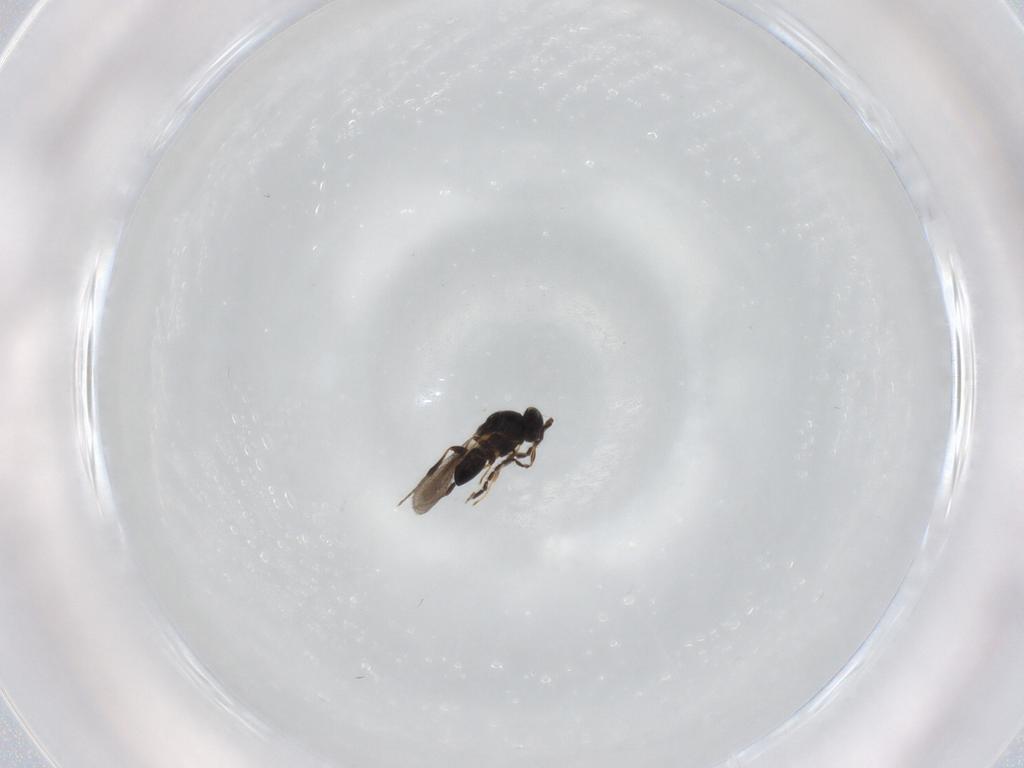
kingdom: Animalia
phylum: Arthropoda
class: Insecta
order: Hymenoptera
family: Platygastridae
